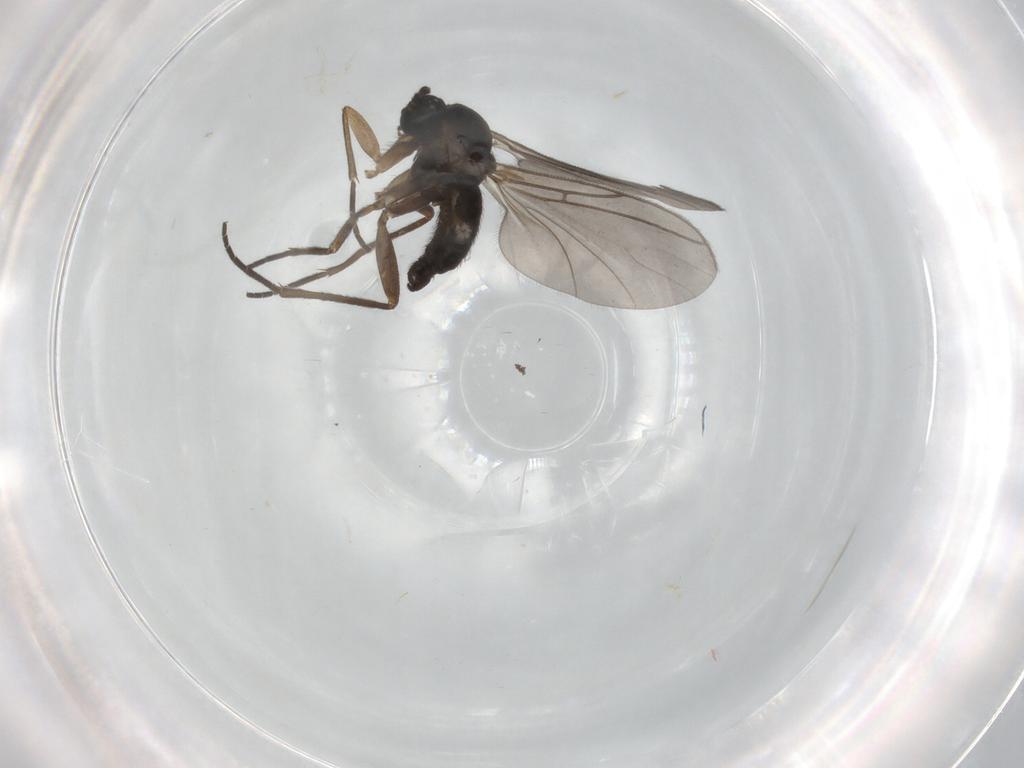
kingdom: Animalia
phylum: Arthropoda
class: Insecta
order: Diptera
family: Sciaridae
